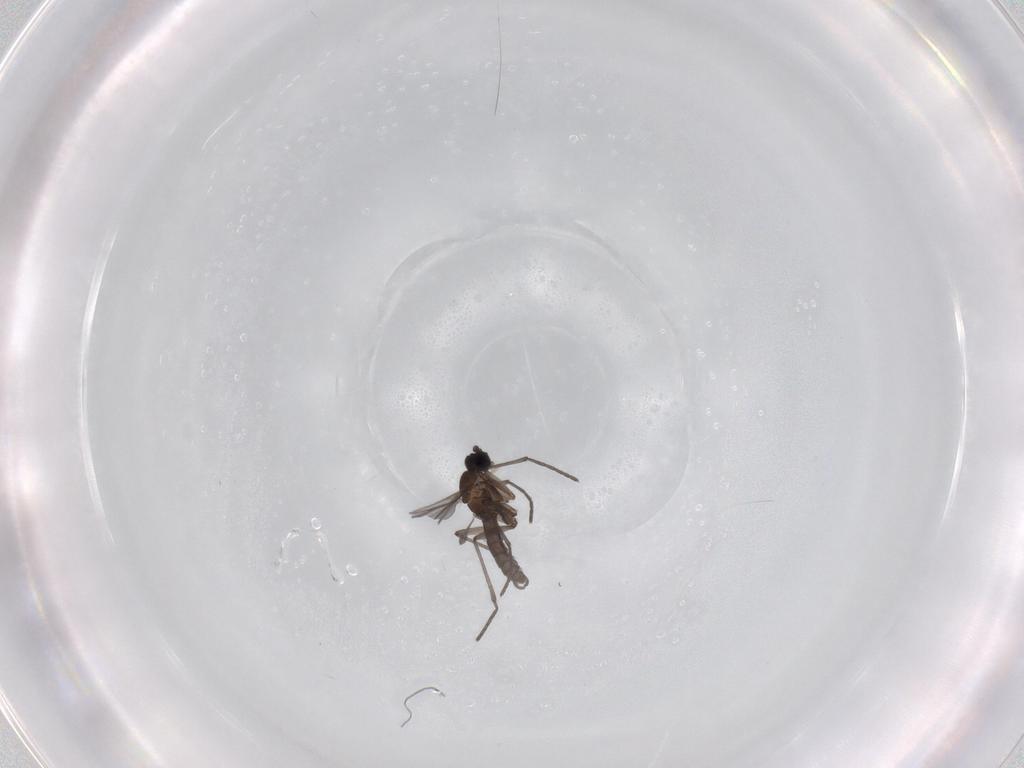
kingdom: Animalia
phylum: Arthropoda
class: Insecta
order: Diptera
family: Sciaridae
